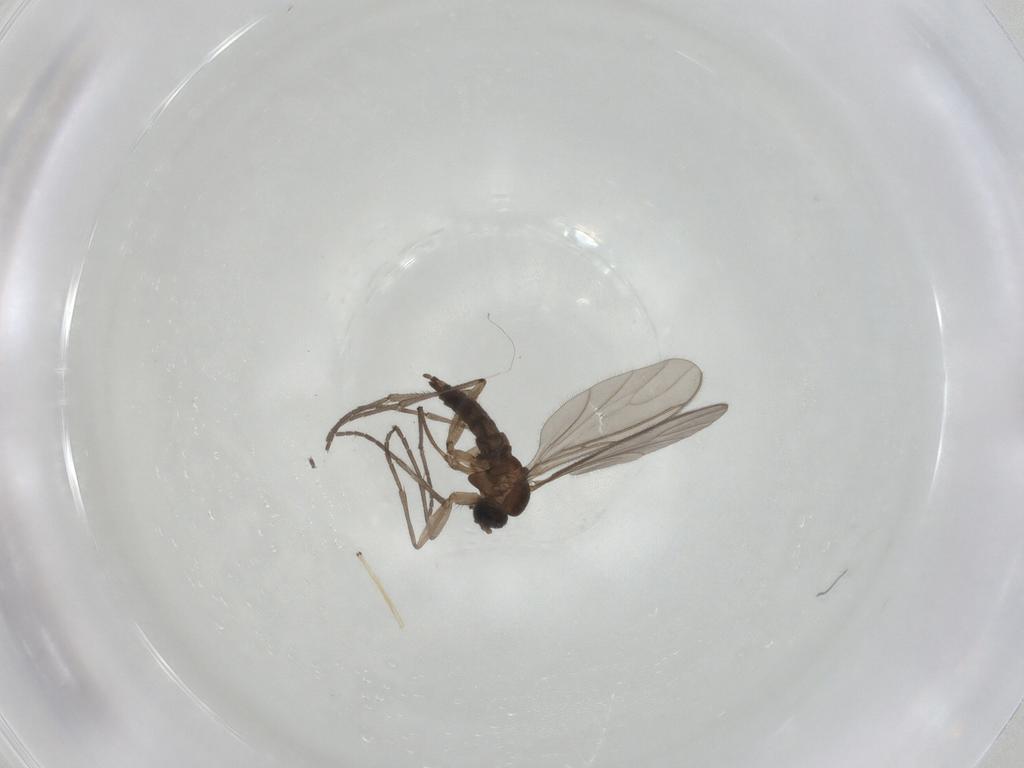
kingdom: Animalia
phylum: Arthropoda
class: Insecta
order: Diptera
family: Sciaridae
